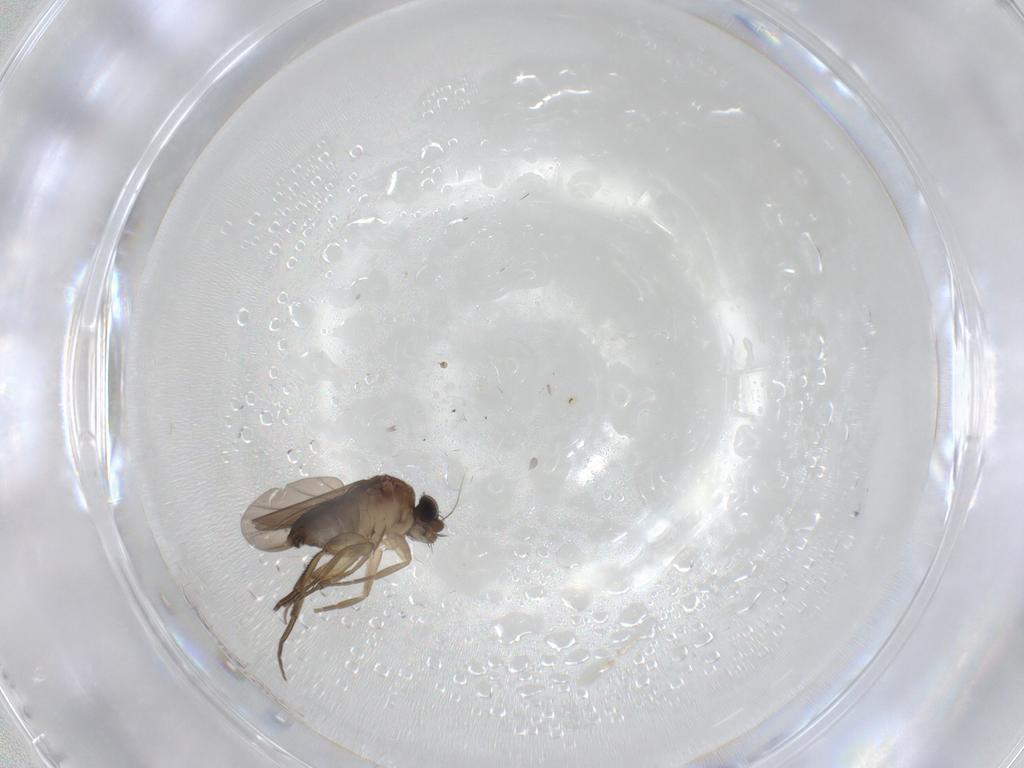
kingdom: Animalia
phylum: Arthropoda
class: Insecta
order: Diptera
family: Phoridae
